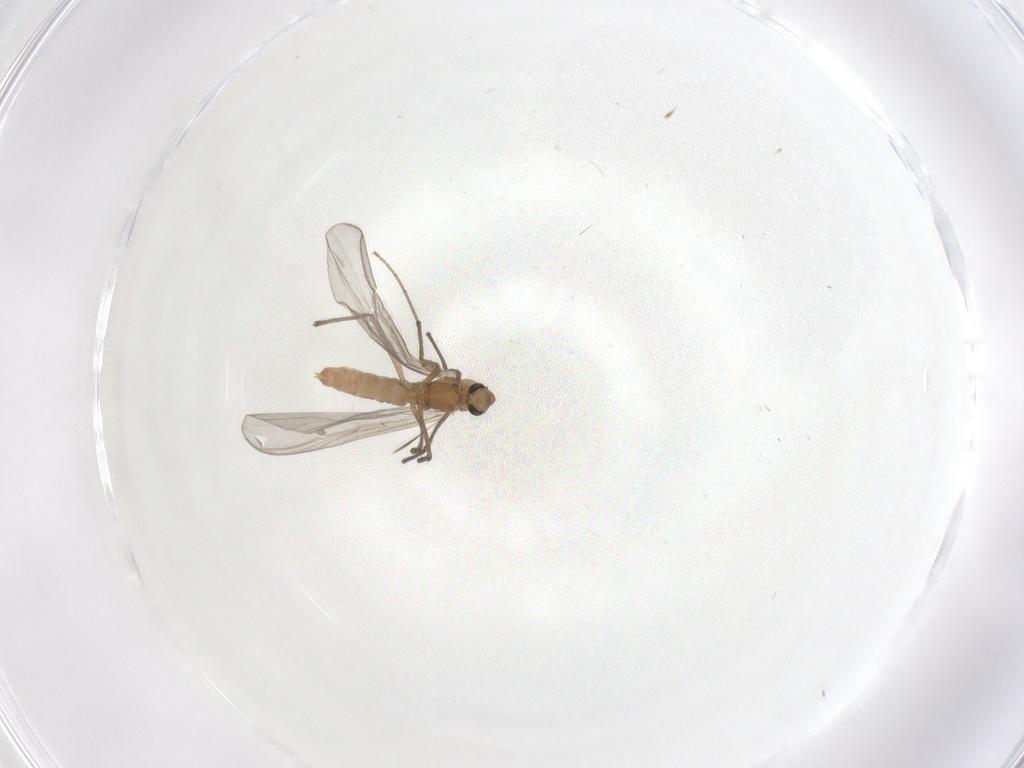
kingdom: Animalia
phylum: Arthropoda
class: Insecta
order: Diptera
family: Chironomidae
